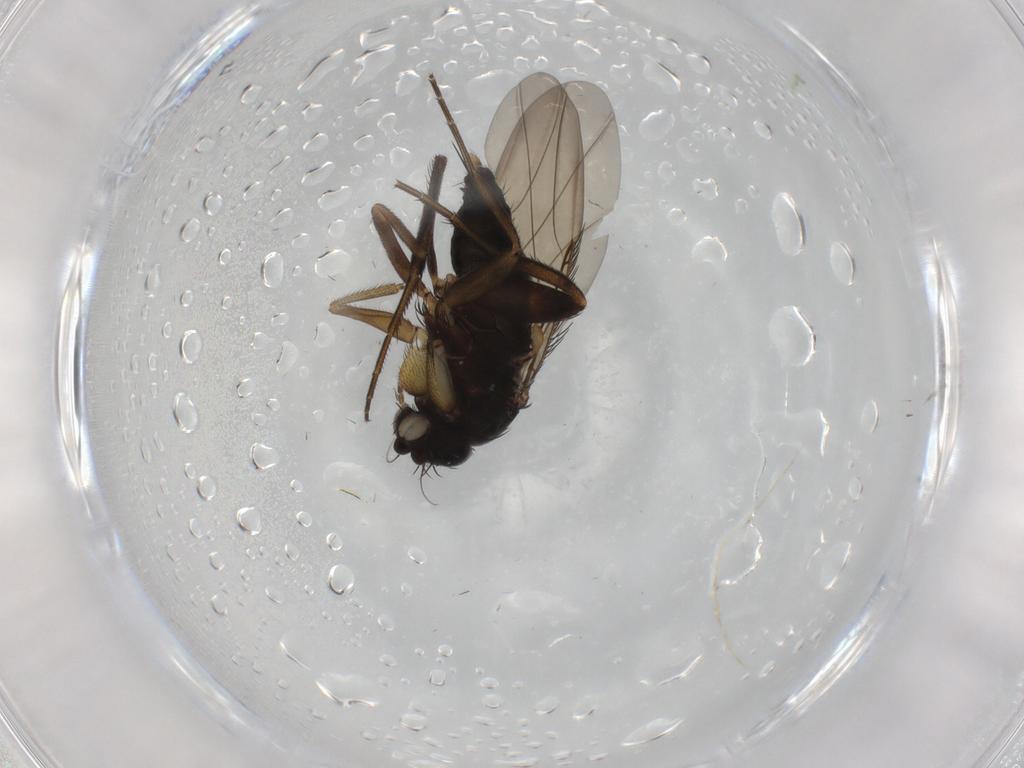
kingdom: Animalia
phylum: Arthropoda
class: Insecta
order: Diptera
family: Phoridae
